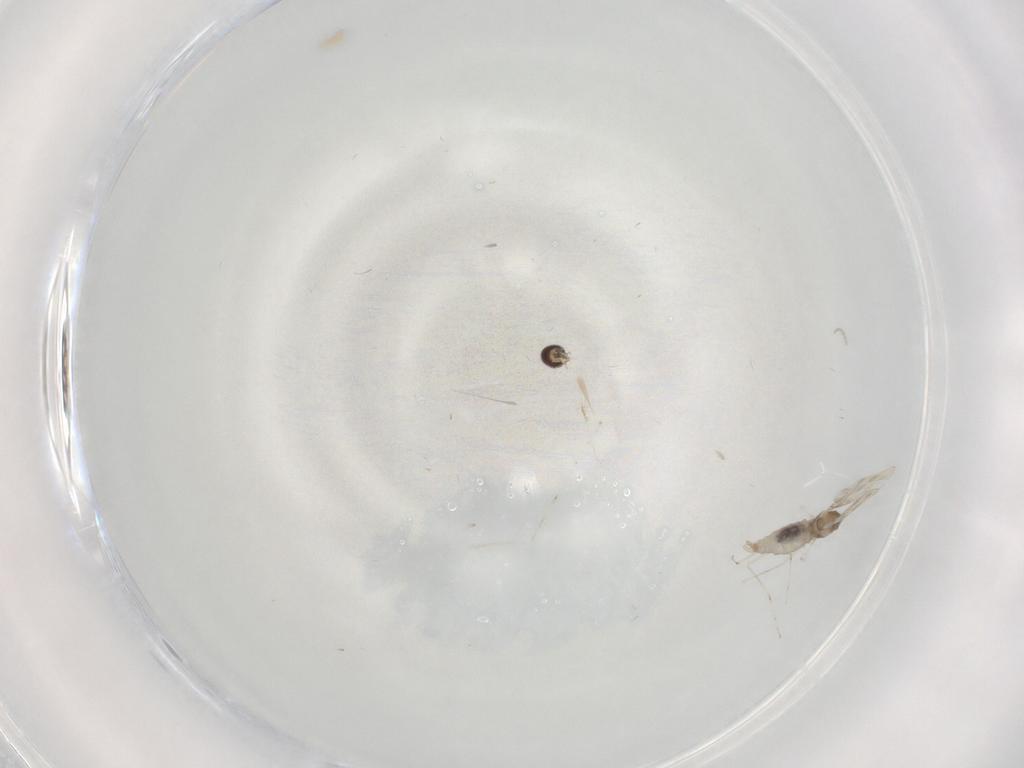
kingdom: Animalia
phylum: Arthropoda
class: Insecta
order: Diptera
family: Cecidomyiidae
